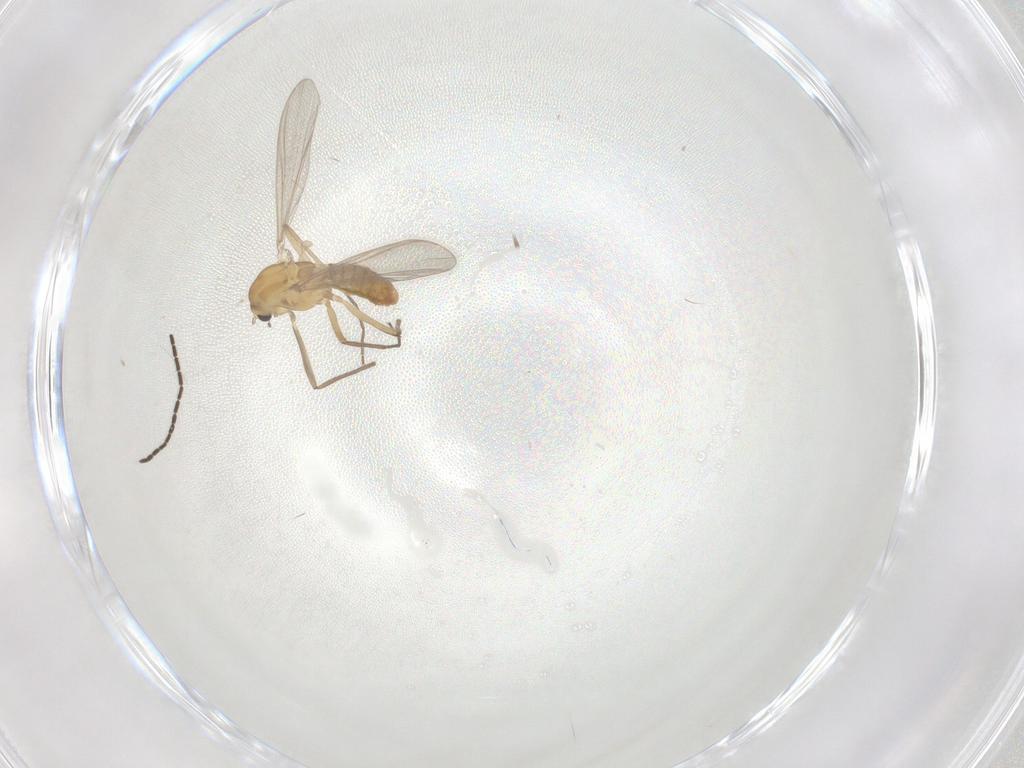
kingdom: Animalia
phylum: Arthropoda
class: Insecta
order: Diptera
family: Chironomidae
